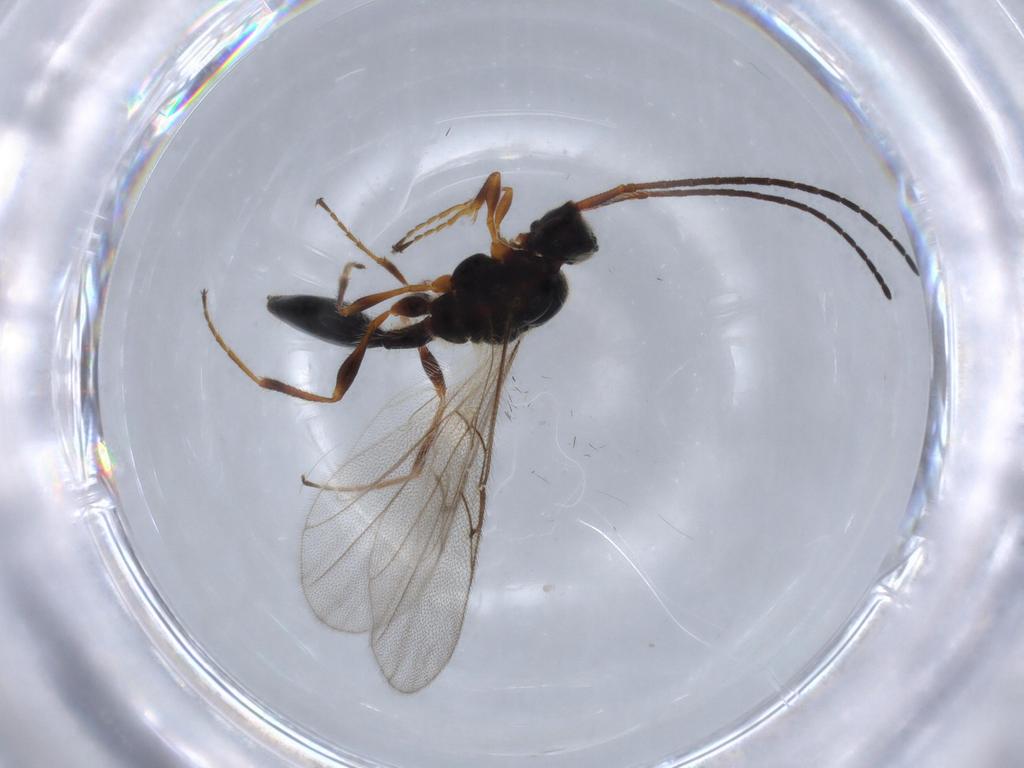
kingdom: Animalia
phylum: Arthropoda
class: Insecta
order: Hymenoptera
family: Diapriidae
